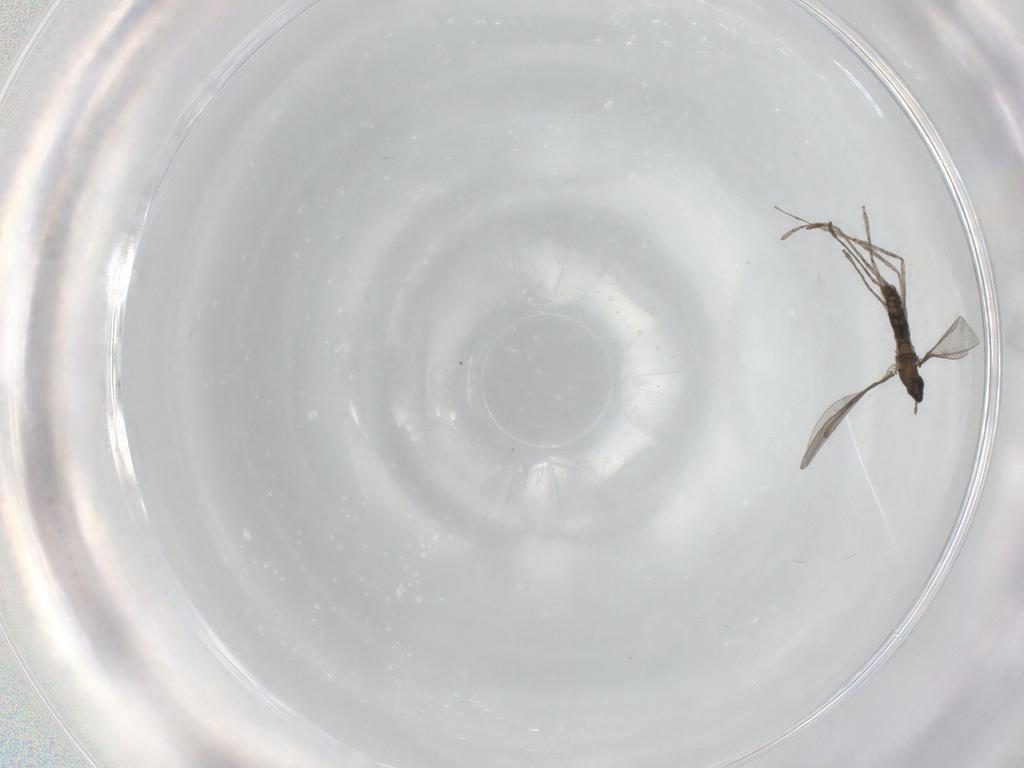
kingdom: Animalia
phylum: Arthropoda
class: Insecta
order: Diptera
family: Cecidomyiidae
